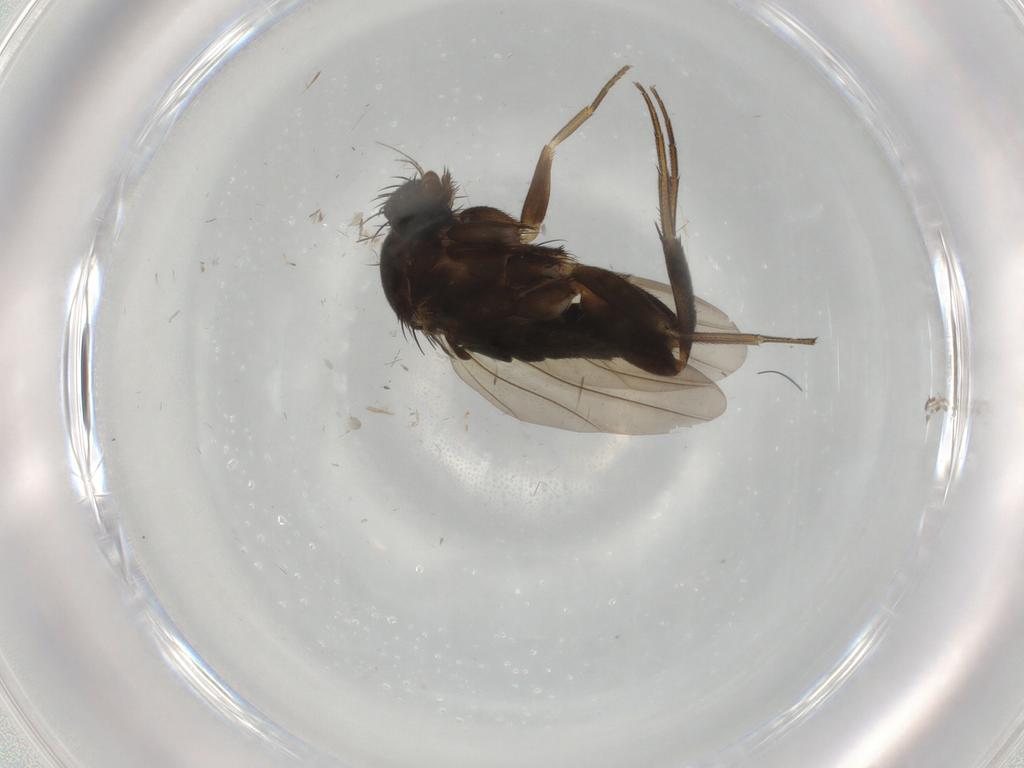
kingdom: Animalia
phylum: Arthropoda
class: Insecta
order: Diptera
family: Phoridae
